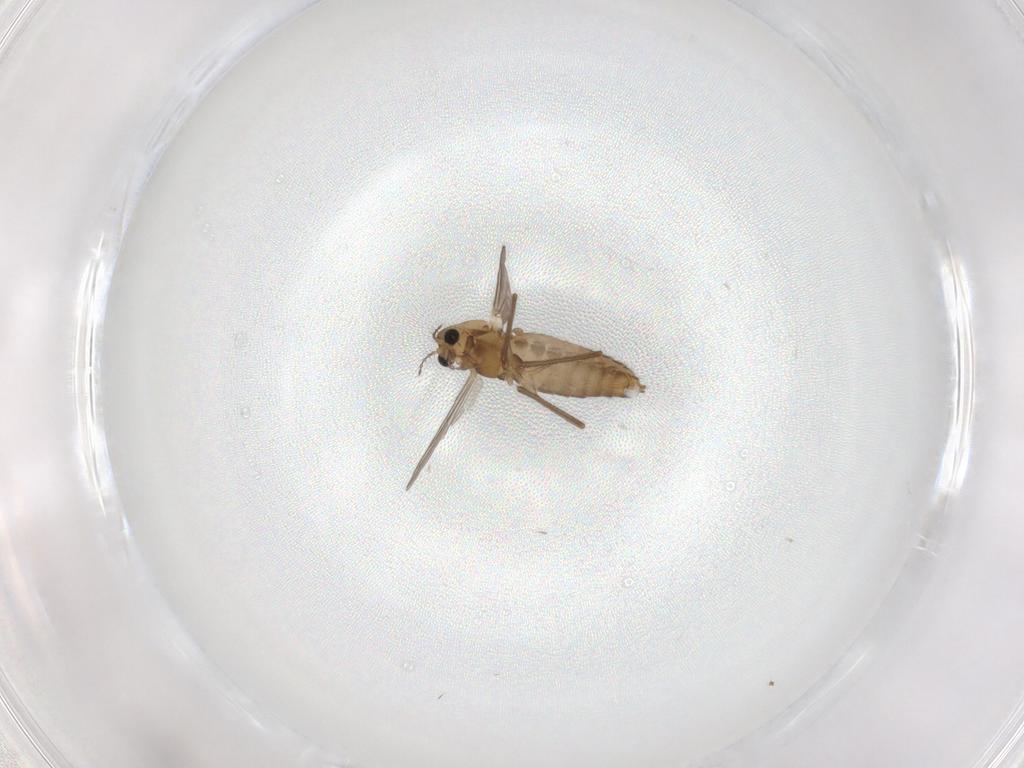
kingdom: Animalia
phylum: Arthropoda
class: Insecta
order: Diptera
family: Chironomidae
